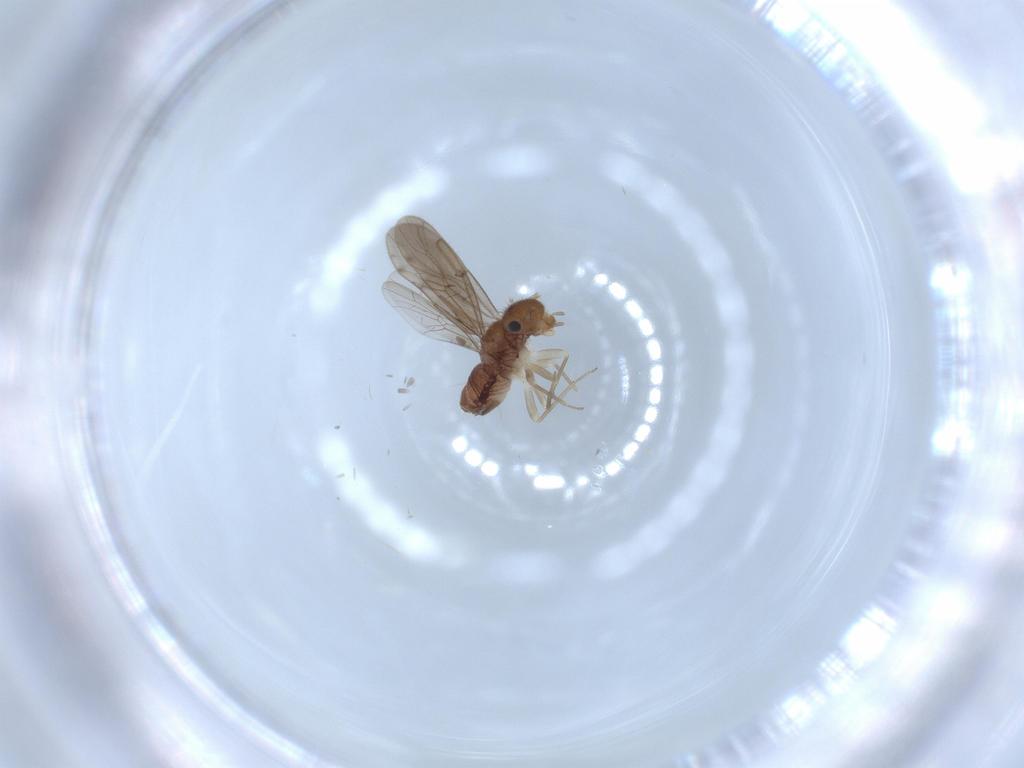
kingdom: Animalia
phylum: Arthropoda
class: Insecta
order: Psocodea
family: Ectopsocidae
